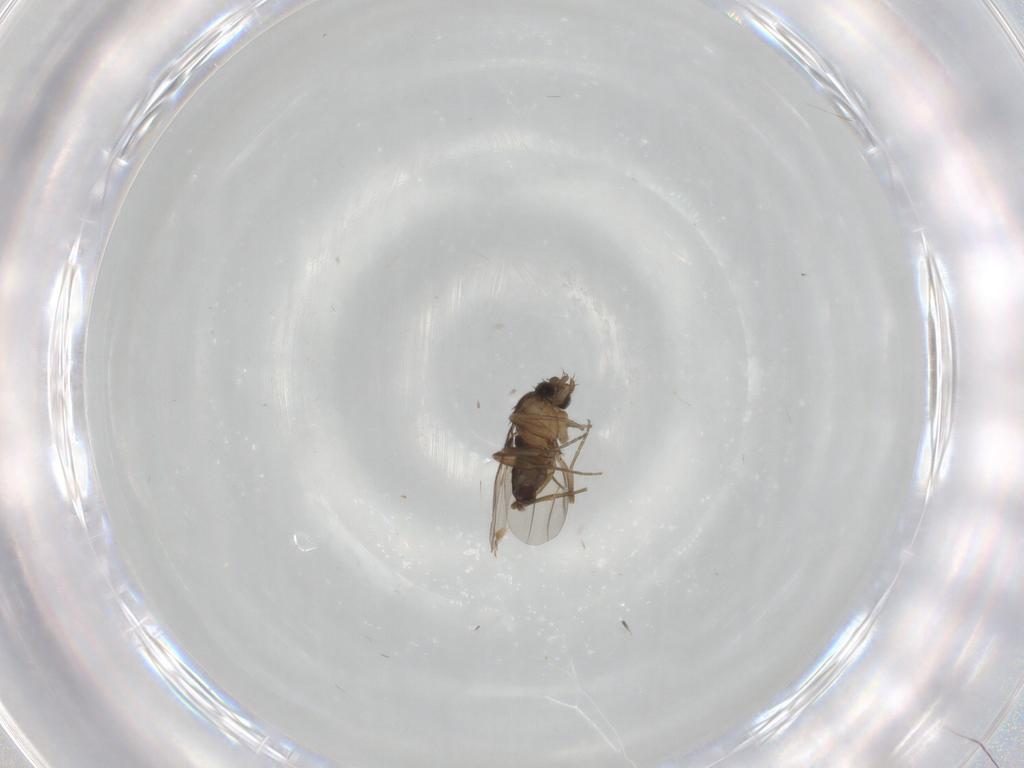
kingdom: Animalia
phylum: Arthropoda
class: Insecta
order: Diptera
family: Phoridae
